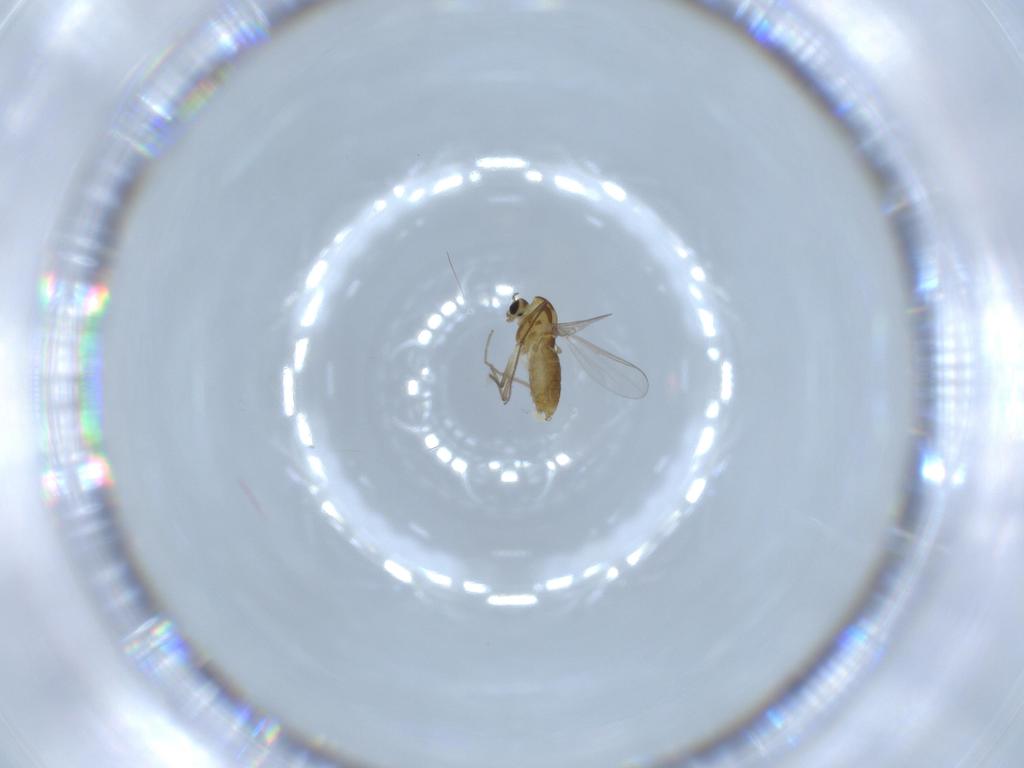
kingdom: Animalia
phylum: Arthropoda
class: Insecta
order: Diptera
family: Chironomidae
